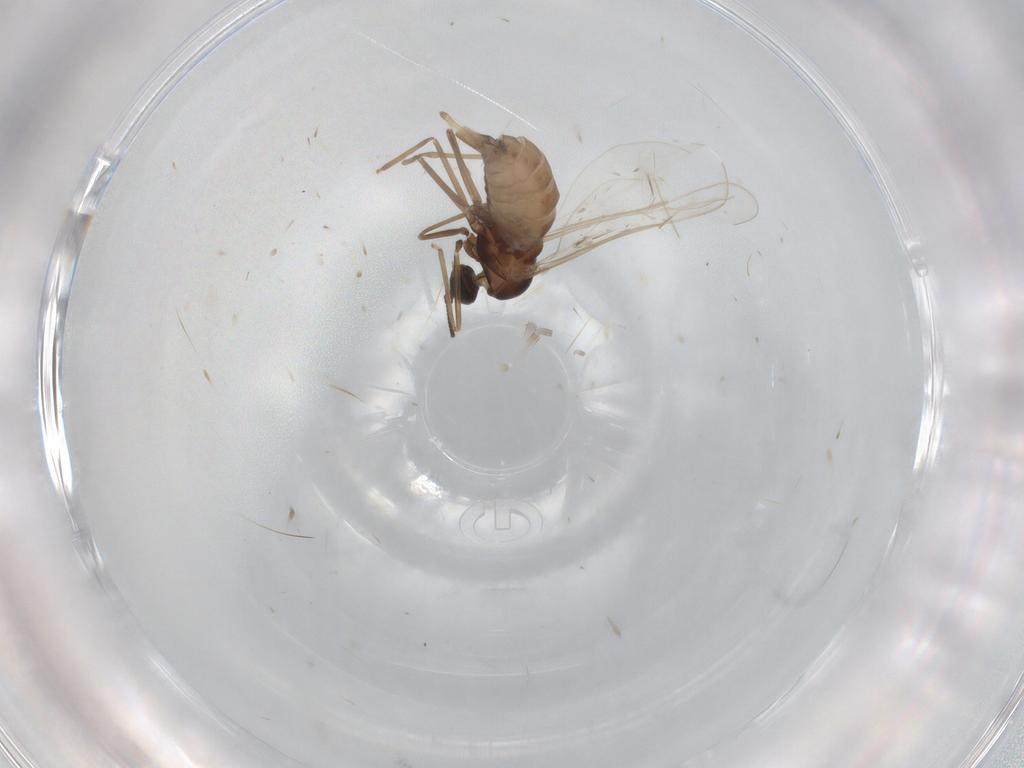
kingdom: Animalia
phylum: Arthropoda
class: Insecta
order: Diptera
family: Cecidomyiidae
